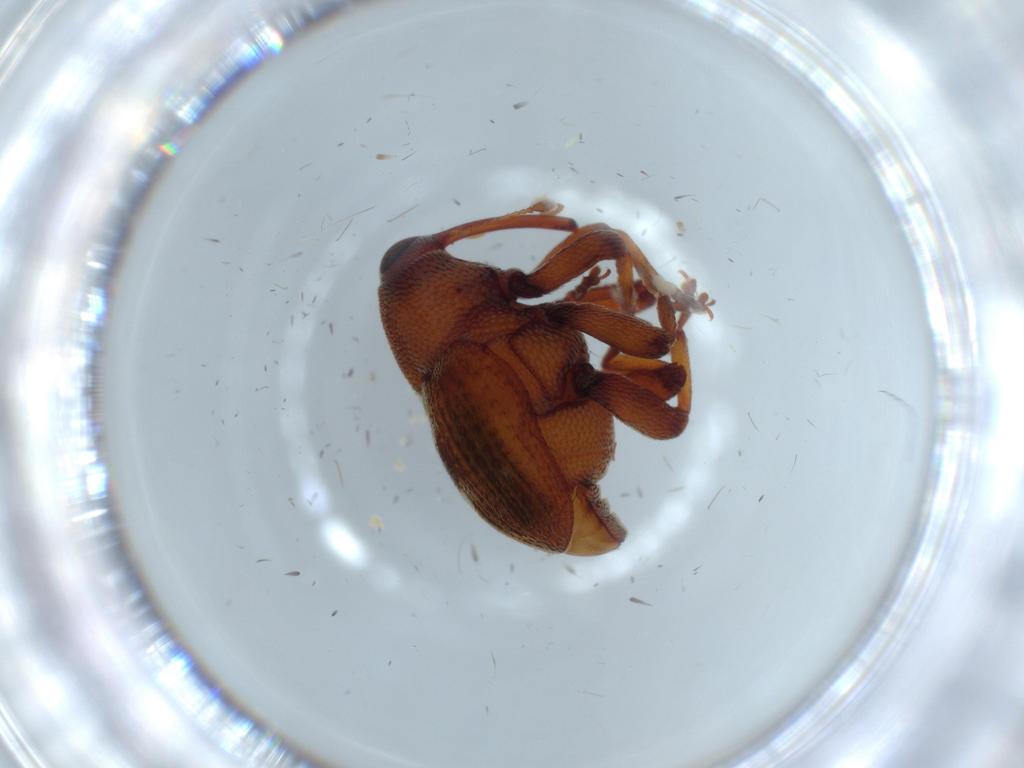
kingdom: Animalia
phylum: Arthropoda
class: Insecta
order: Coleoptera
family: Curculionidae
